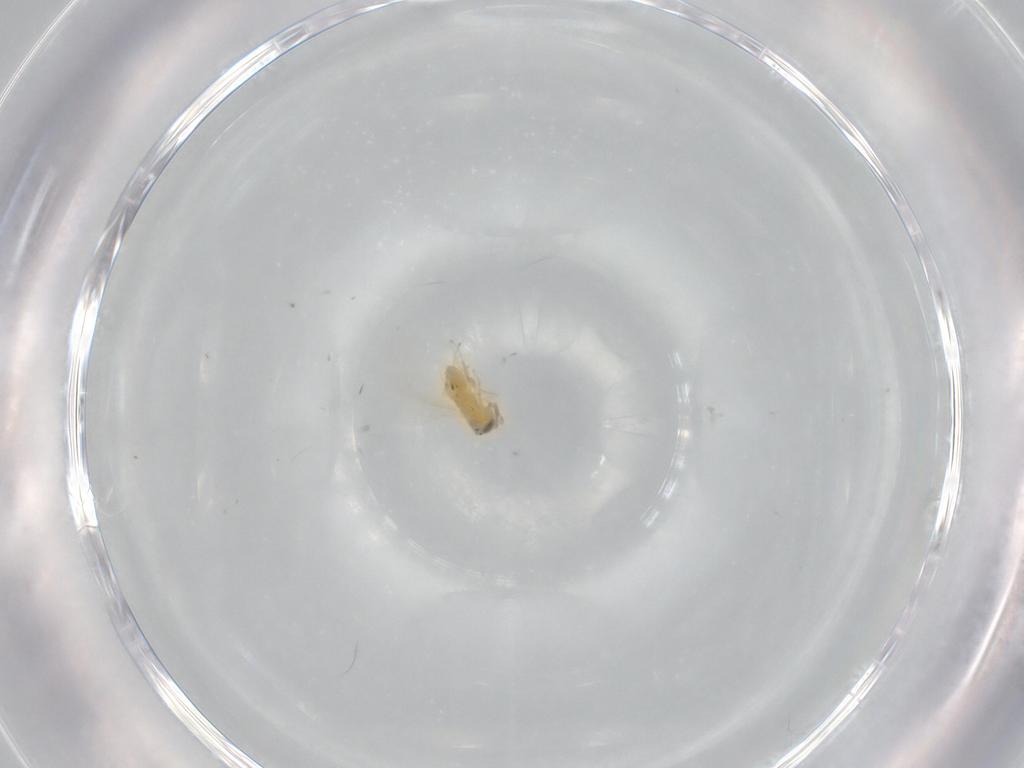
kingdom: Animalia
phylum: Arthropoda
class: Insecta
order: Hymenoptera
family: Encyrtidae
